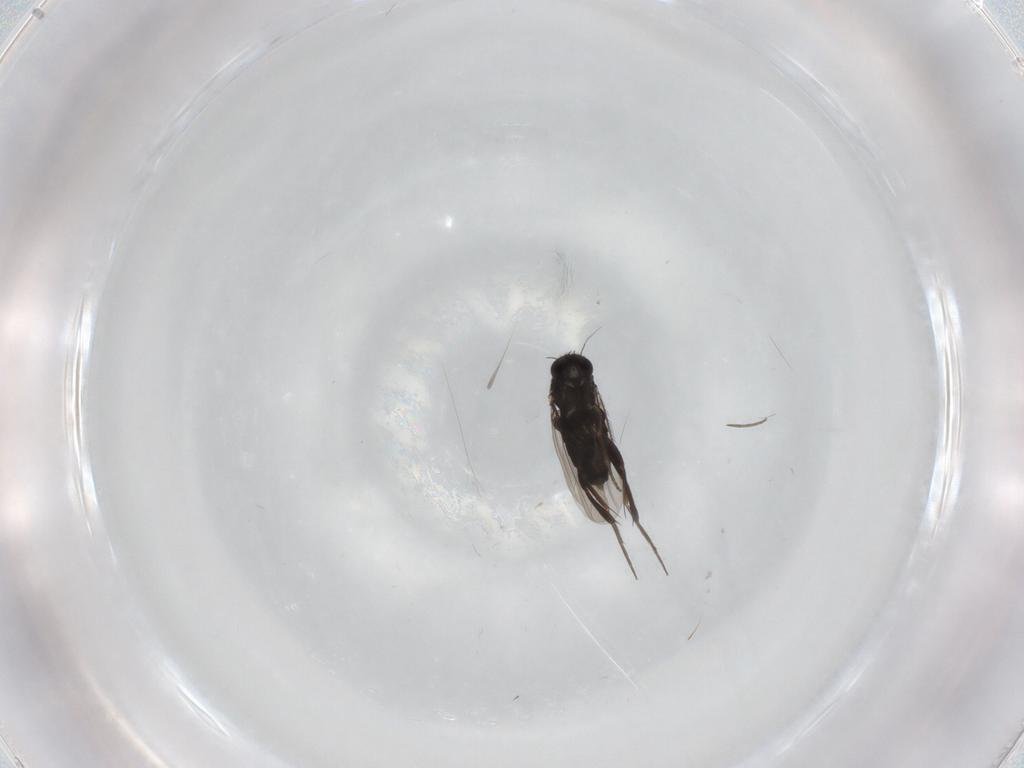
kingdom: Animalia
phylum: Arthropoda
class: Insecta
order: Diptera
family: Phoridae
